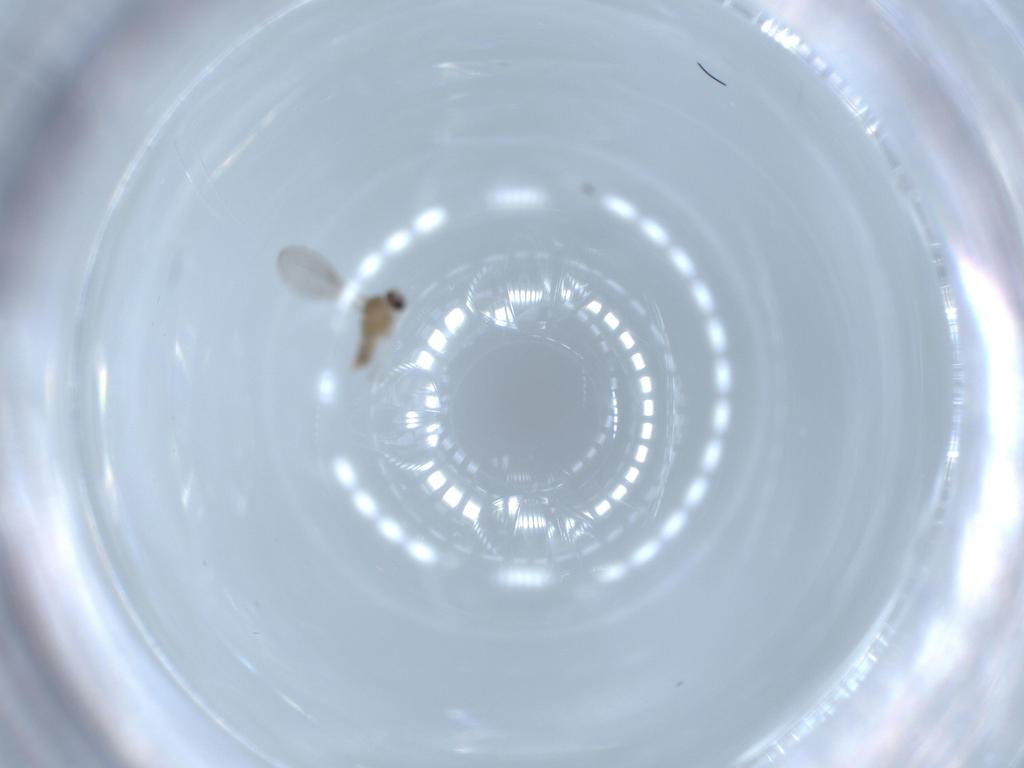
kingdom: Animalia
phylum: Arthropoda
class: Insecta
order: Diptera
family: Cecidomyiidae
